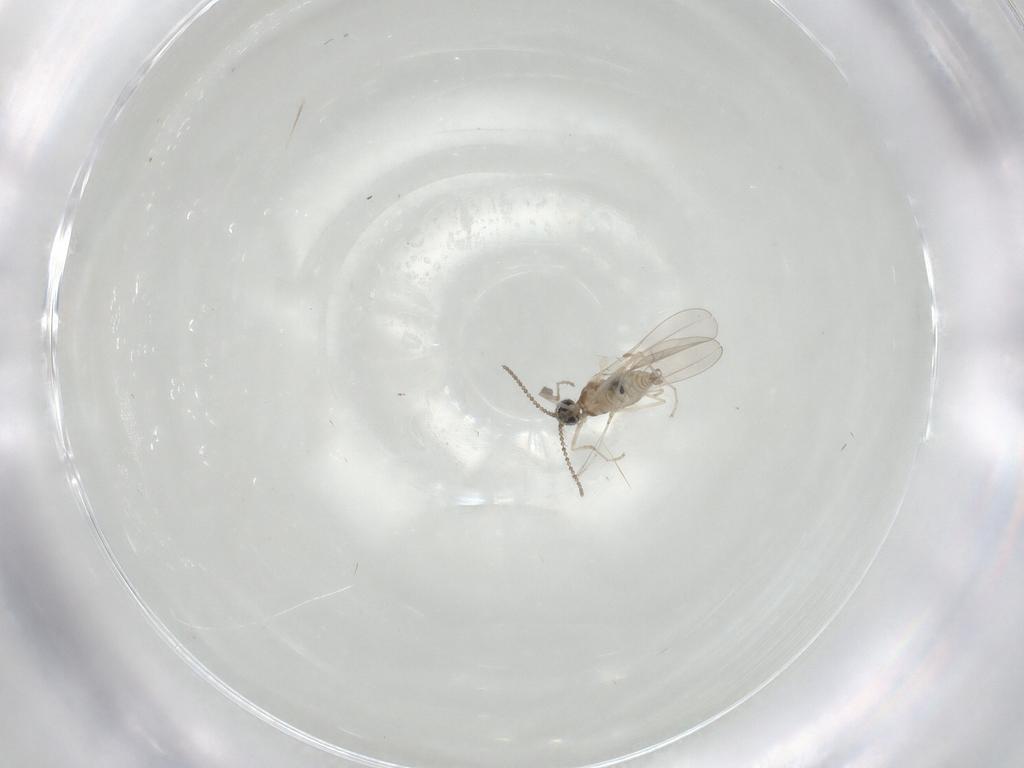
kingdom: Animalia
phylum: Arthropoda
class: Insecta
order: Diptera
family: Cecidomyiidae
